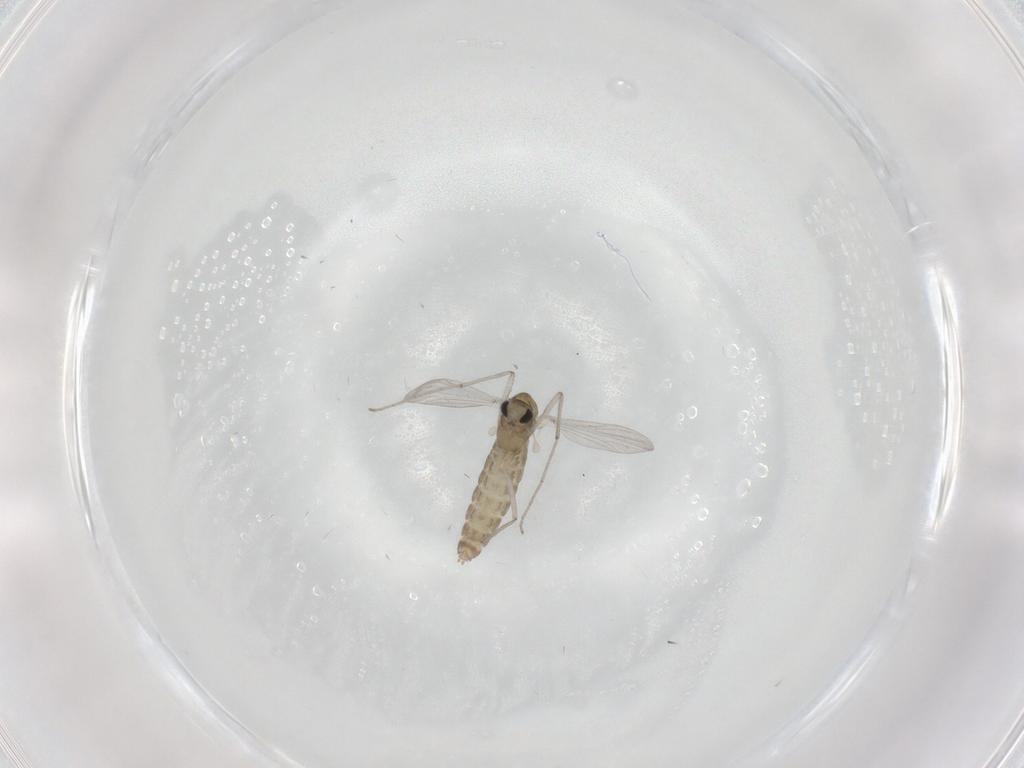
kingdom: Animalia
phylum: Arthropoda
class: Insecta
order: Diptera
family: Chironomidae
